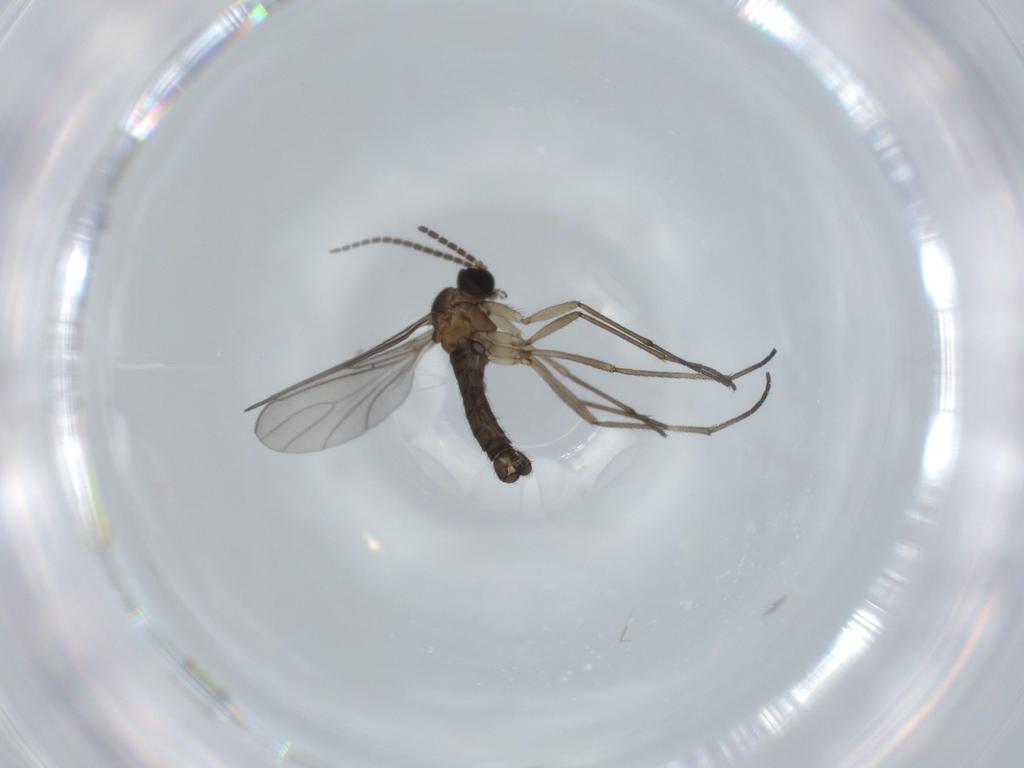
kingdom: Animalia
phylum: Arthropoda
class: Insecta
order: Diptera
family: Sciaridae
